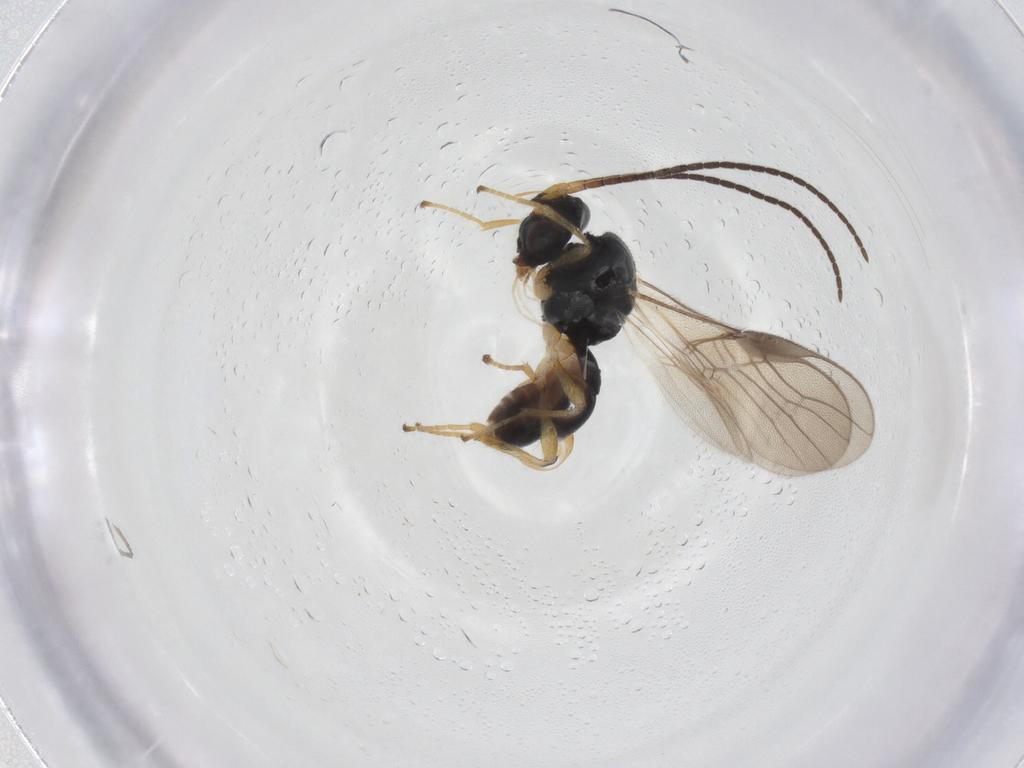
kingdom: Animalia
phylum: Arthropoda
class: Insecta
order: Hymenoptera
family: Braconidae
